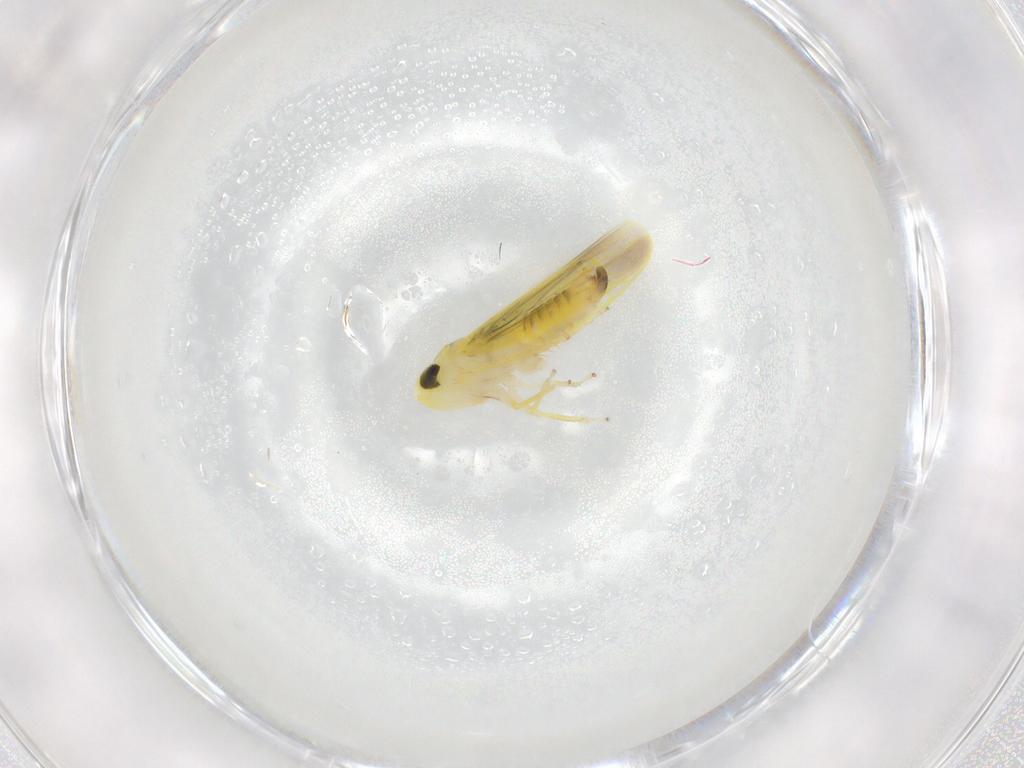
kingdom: Animalia
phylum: Arthropoda
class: Insecta
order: Hemiptera
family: Cicadellidae
